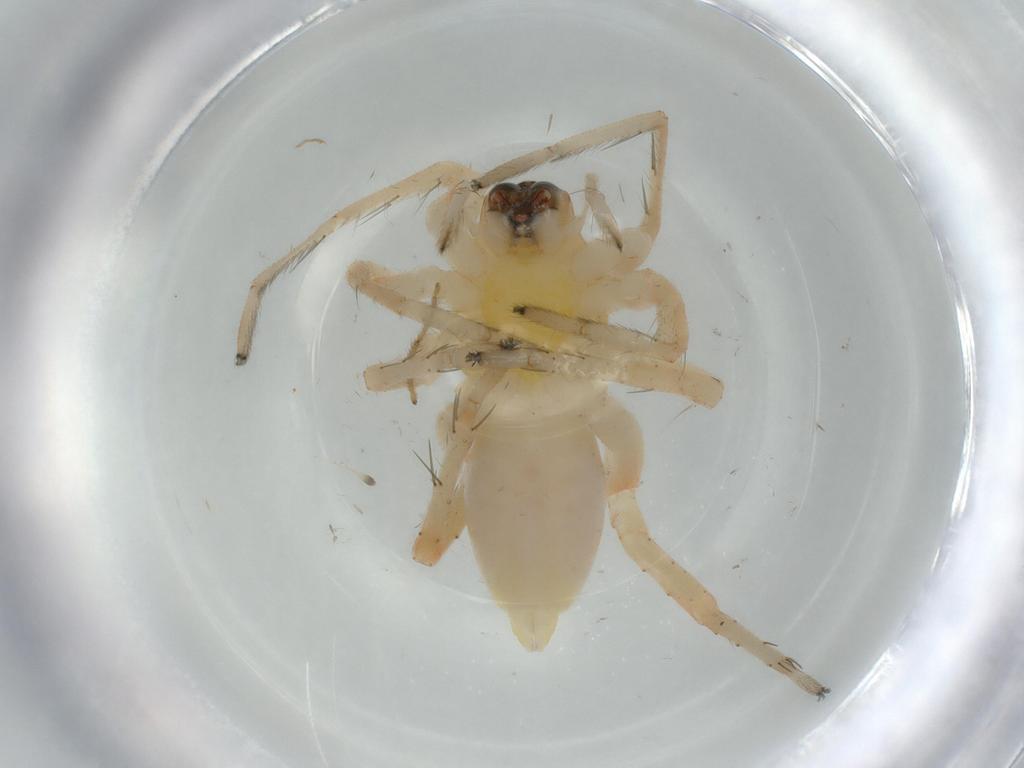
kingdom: Animalia
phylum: Arthropoda
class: Arachnida
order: Araneae
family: Anyphaenidae
